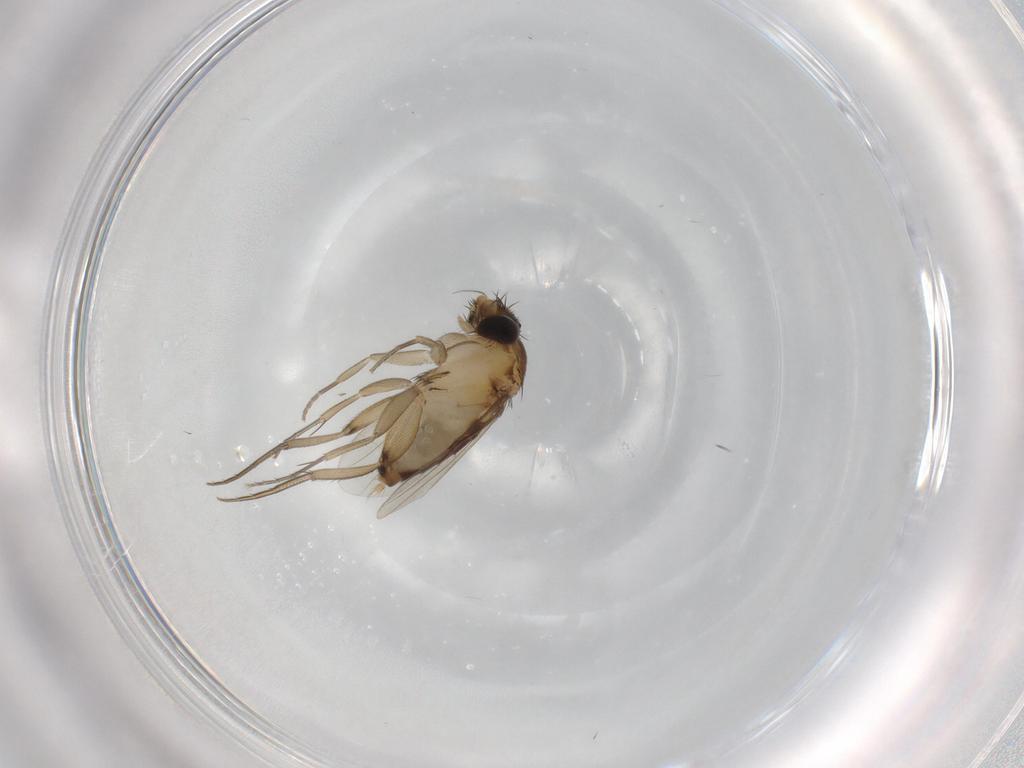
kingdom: Animalia
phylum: Arthropoda
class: Insecta
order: Diptera
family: Phoridae
